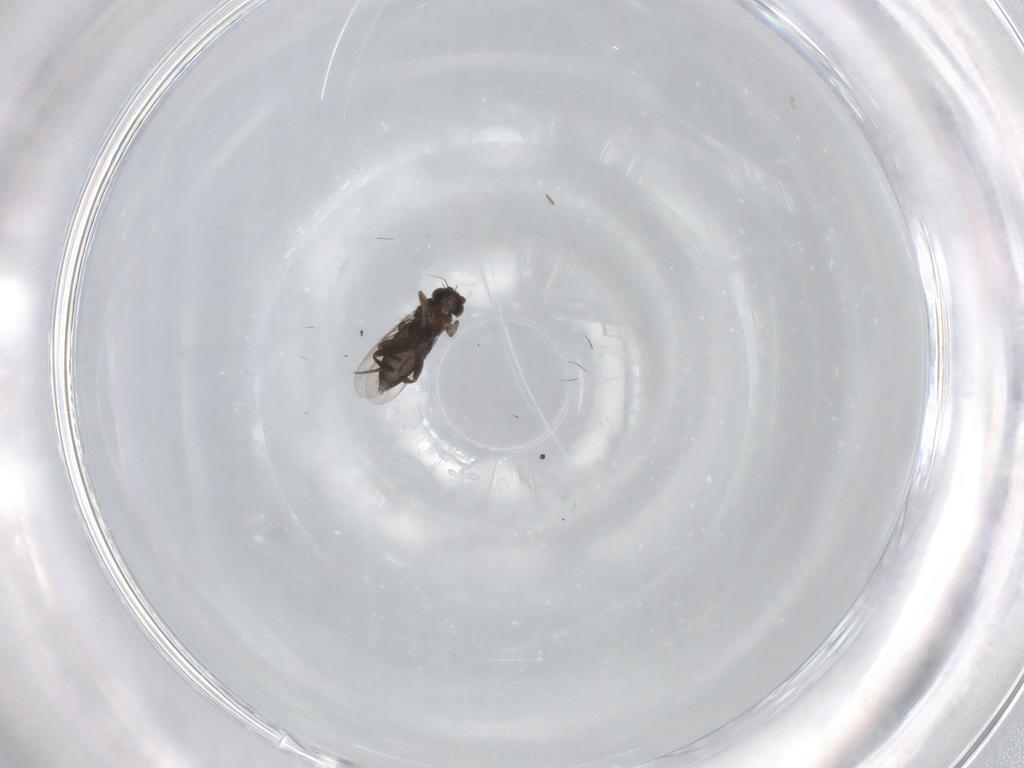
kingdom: Animalia
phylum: Arthropoda
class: Insecta
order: Diptera
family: Phoridae
